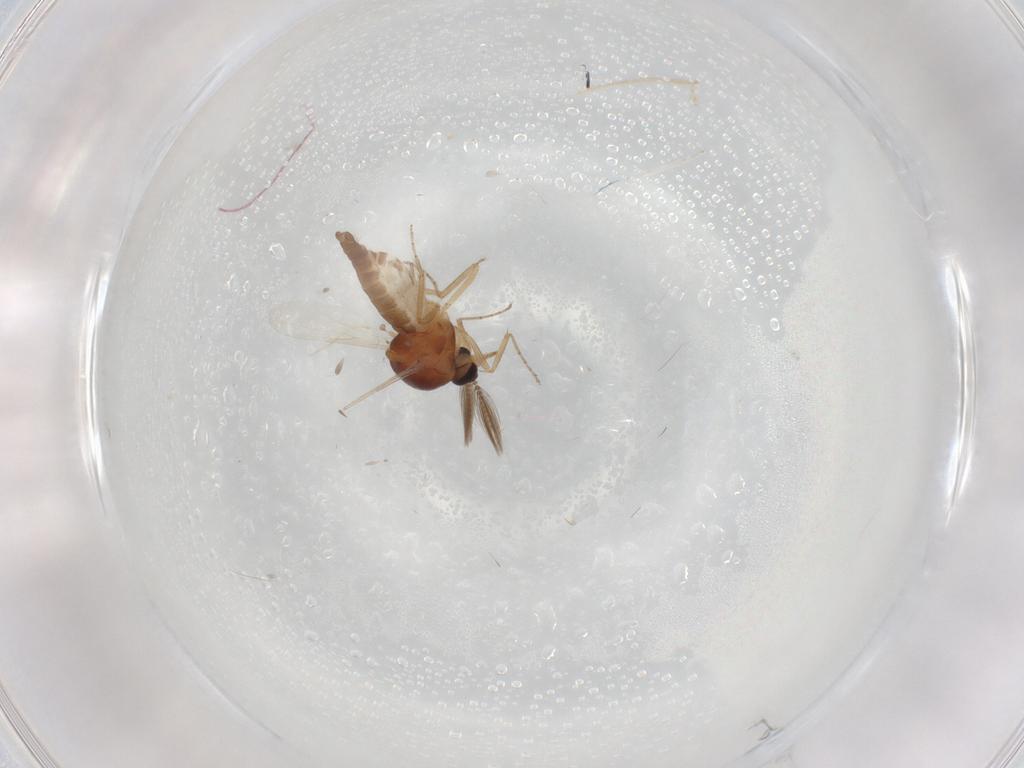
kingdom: Animalia
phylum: Arthropoda
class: Insecta
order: Diptera
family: Ceratopogonidae
